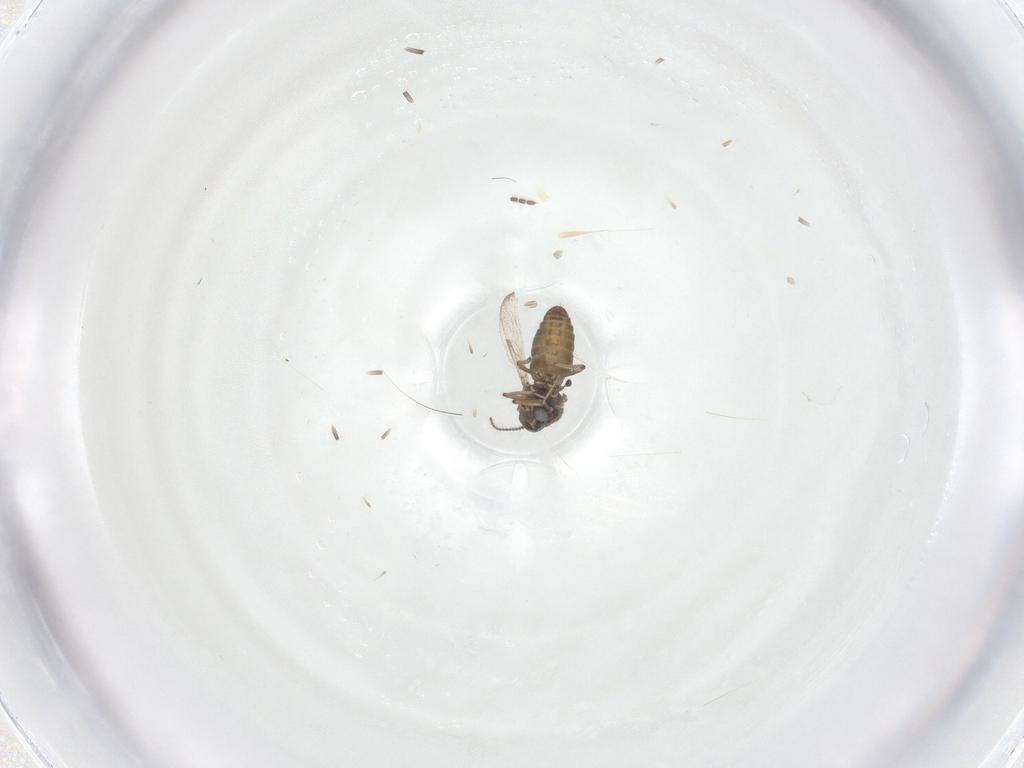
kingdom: Animalia
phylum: Arthropoda
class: Insecta
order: Diptera
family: Ceratopogonidae
